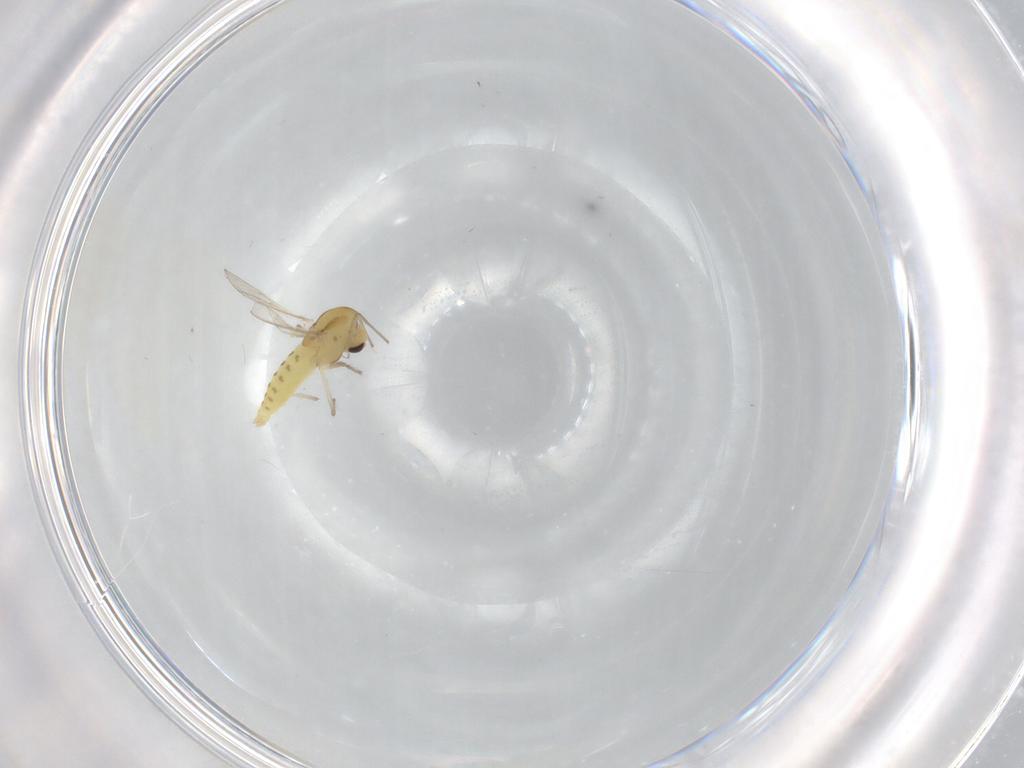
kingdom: Animalia
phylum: Arthropoda
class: Insecta
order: Diptera
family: Chironomidae
